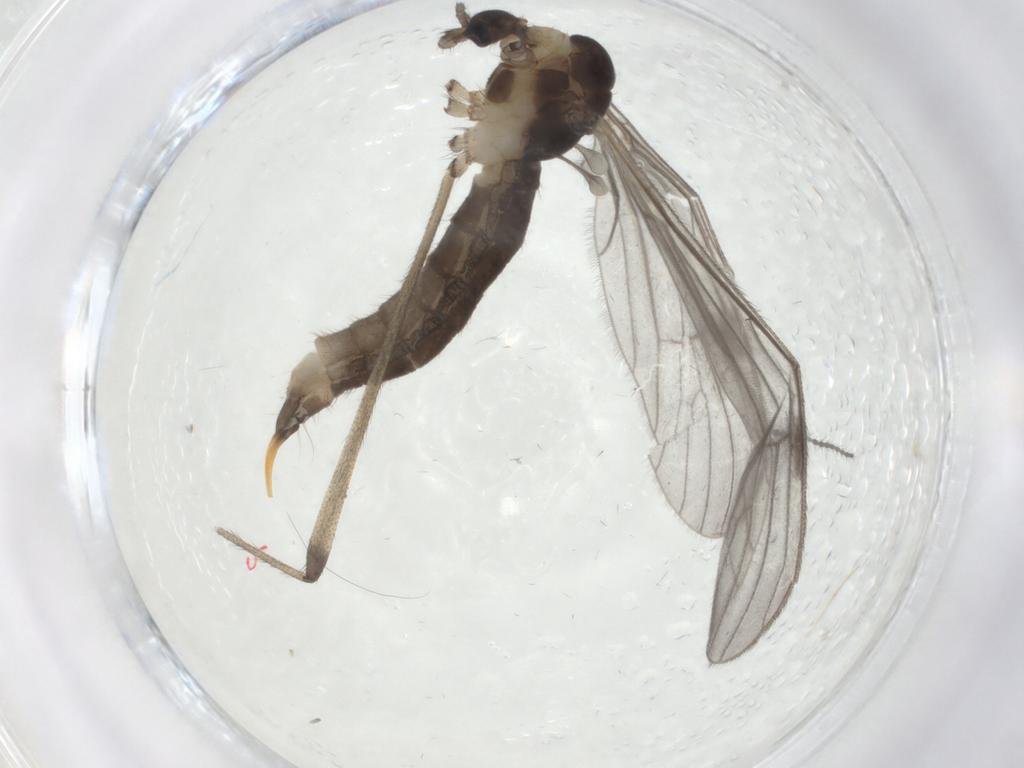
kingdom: Animalia
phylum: Arthropoda
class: Insecta
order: Diptera
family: Limoniidae
